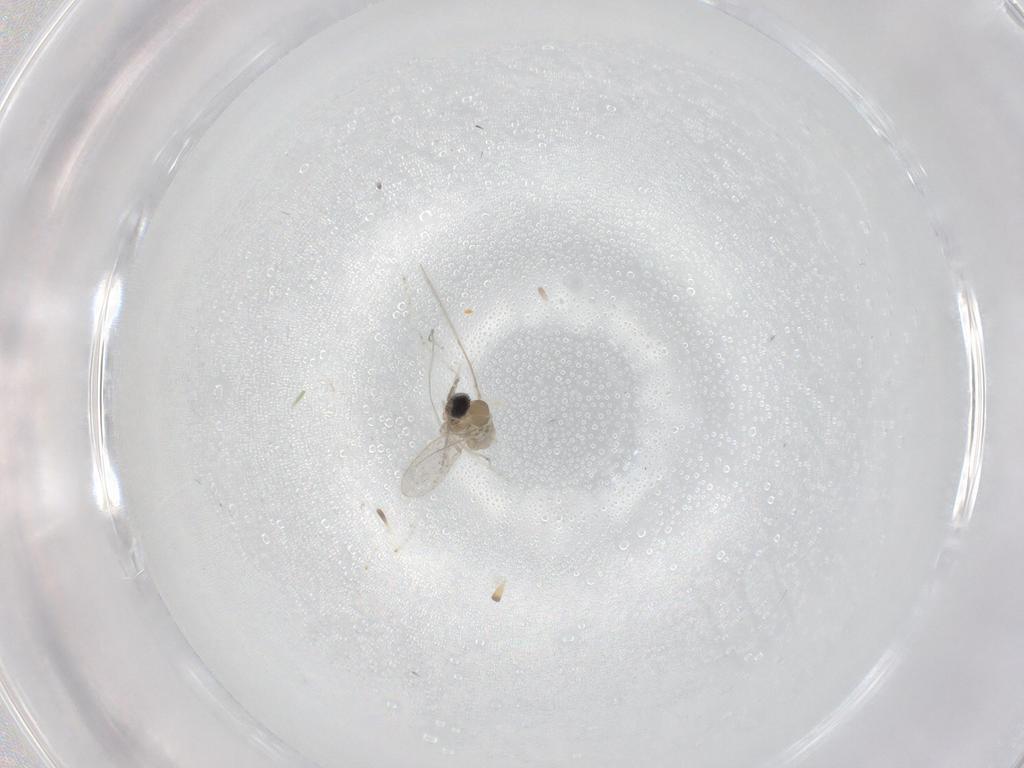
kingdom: Animalia
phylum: Arthropoda
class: Insecta
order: Diptera
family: Cecidomyiidae
